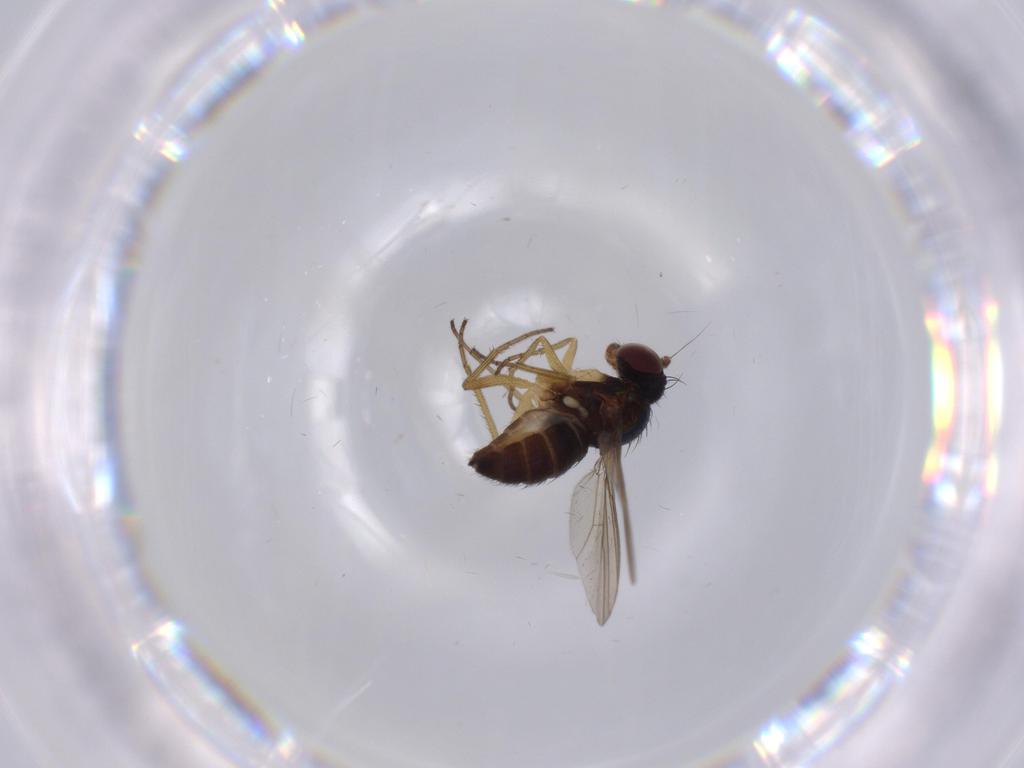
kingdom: Animalia
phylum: Arthropoda
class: Insecta
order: Diptera
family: Dolichopodidae
